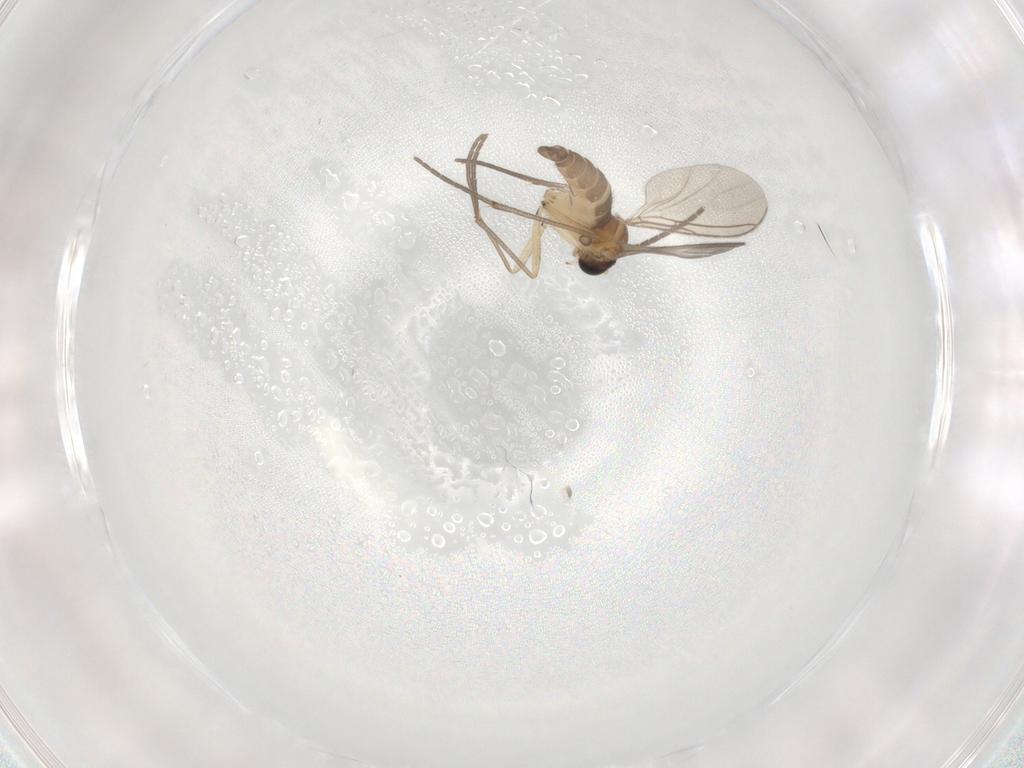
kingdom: Animalia
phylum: Arthropoda
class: Insecta
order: Diptera
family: Sciaridae
